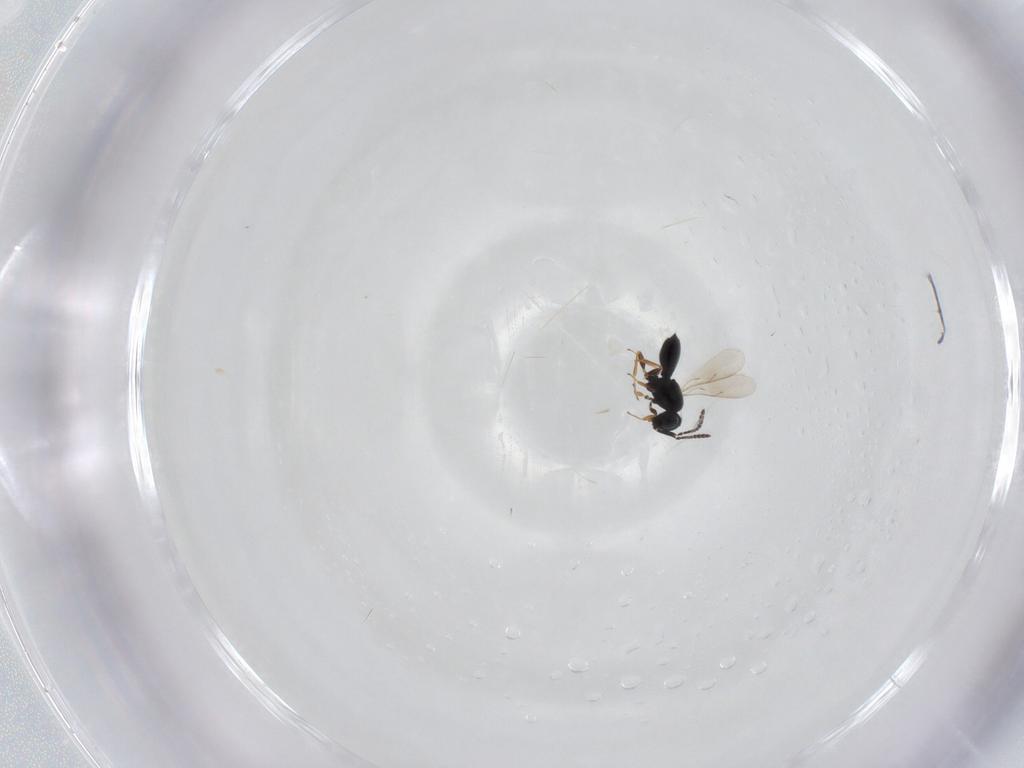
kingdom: Animalia
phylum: Arthropoda
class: Insecta
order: Hymenoptera
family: Scelionidae
